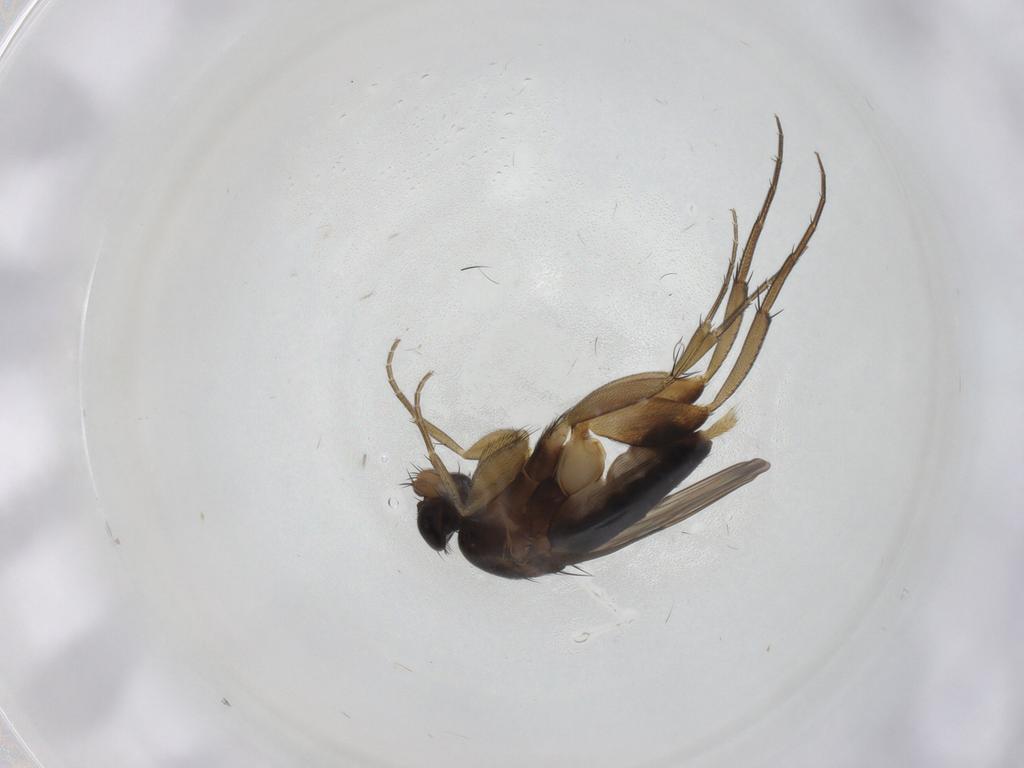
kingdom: Animalia
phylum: Arthropoda
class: Insecta
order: Diptera
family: Phoridae
